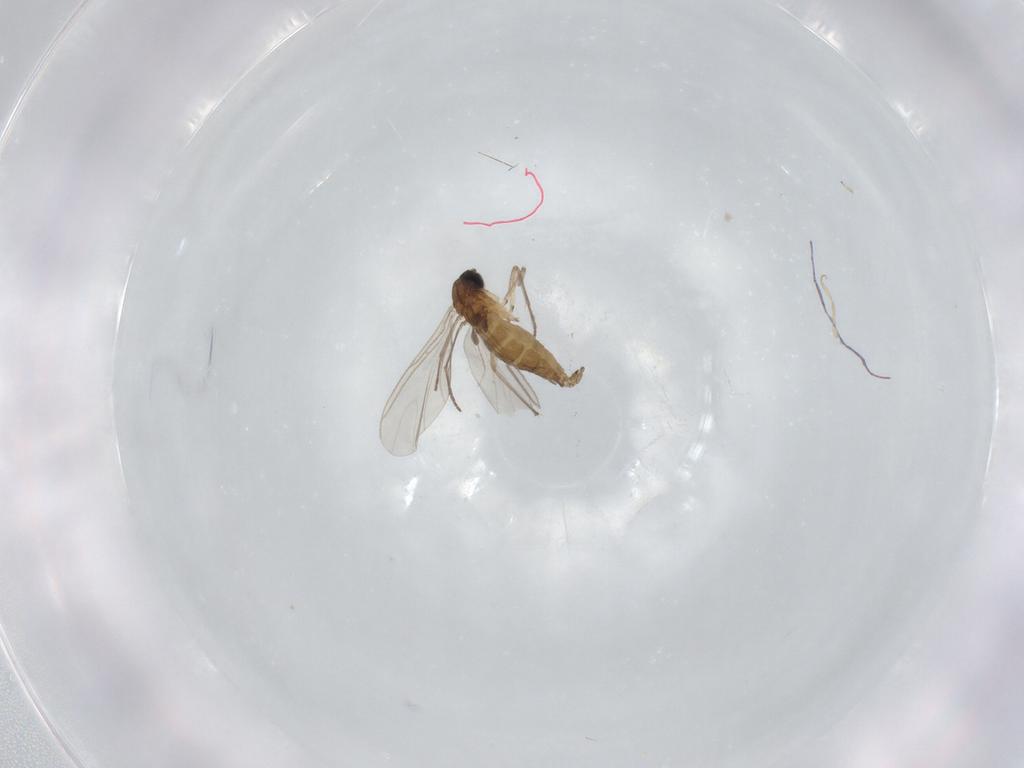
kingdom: Animalia
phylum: Arthropoda
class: Insecta
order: Diptera
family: Sciaridae
